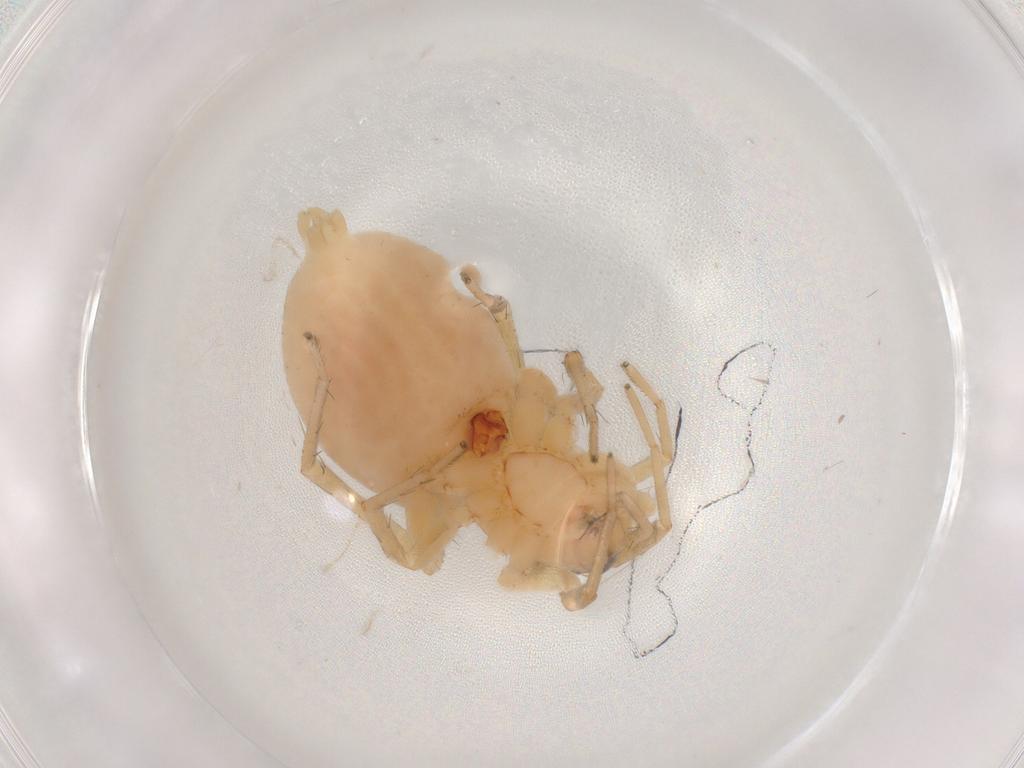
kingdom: Animalia
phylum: Arthropoda
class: Arachnida
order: Araneae
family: Gnaphosidae
